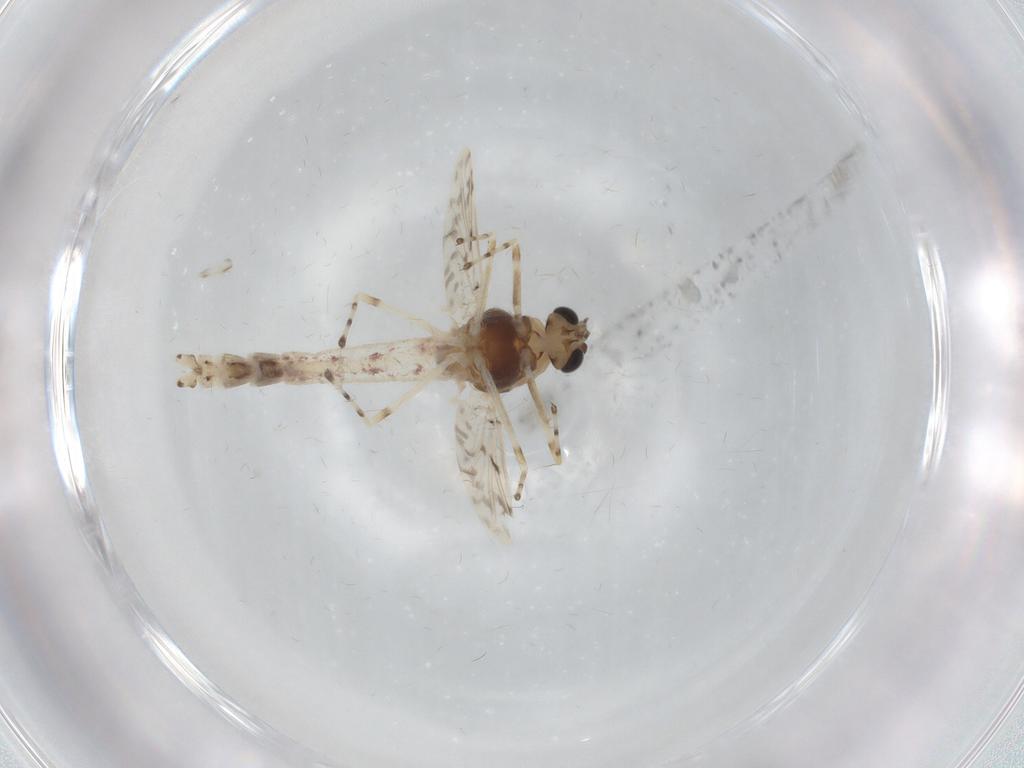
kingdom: Animalia
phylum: Arthropoda
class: Insecta
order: Diptera
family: Chironomidae
